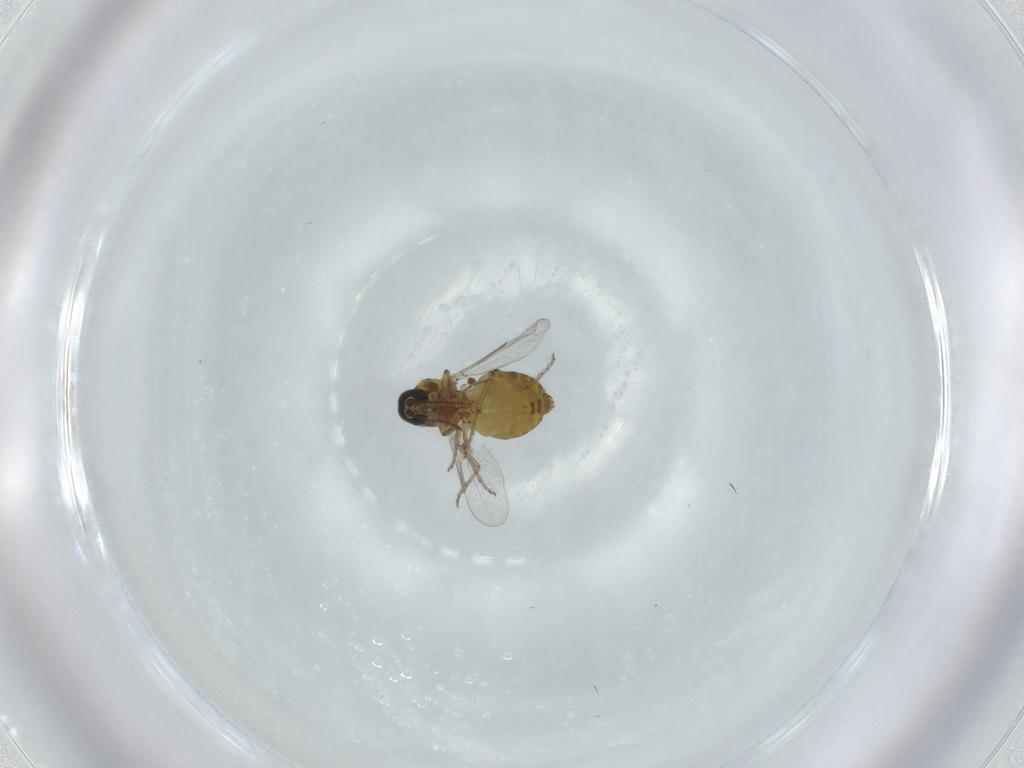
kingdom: Animalia
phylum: Arthropoda
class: Insecta
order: Diptera
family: Ceratopogonidae
